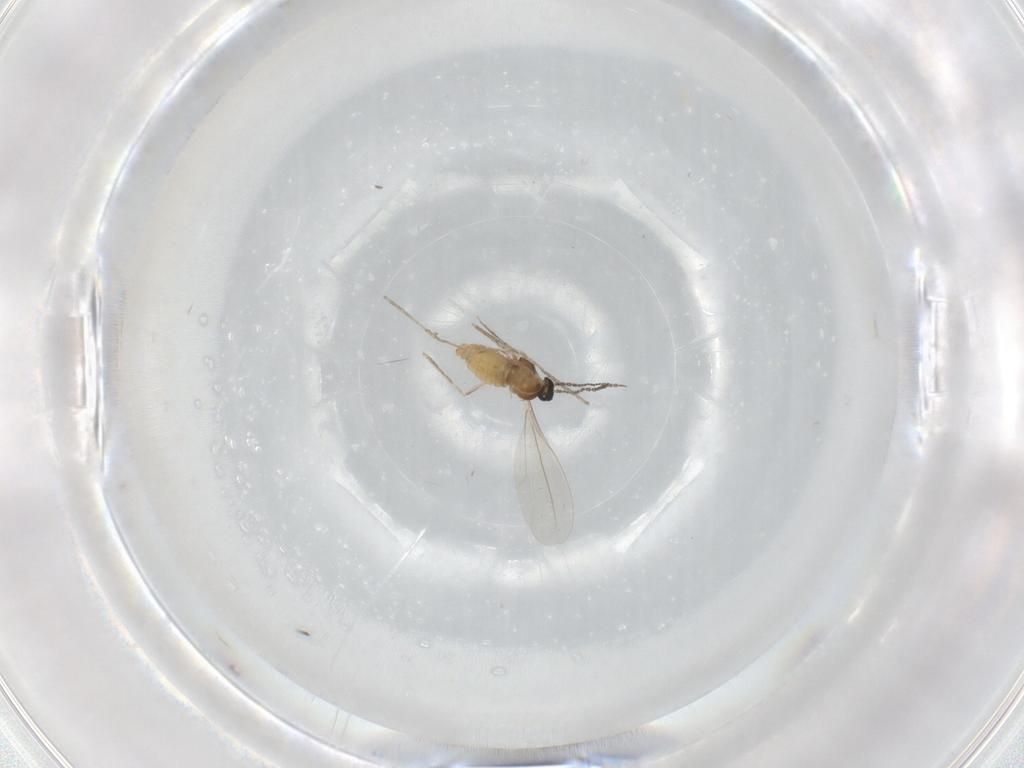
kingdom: Animalia
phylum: Arthropoda
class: Insecta
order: Diptera
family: Cecidomyiidae
